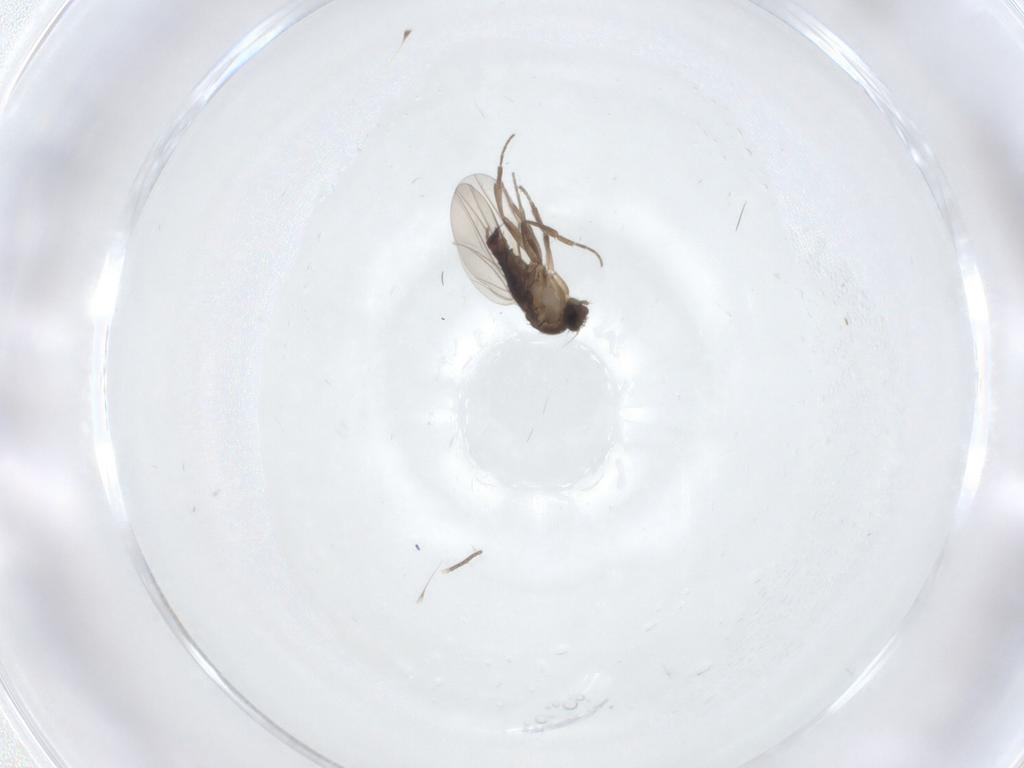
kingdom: Animalia
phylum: Arthropoda
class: Insecta
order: Diptera
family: Phoridae
